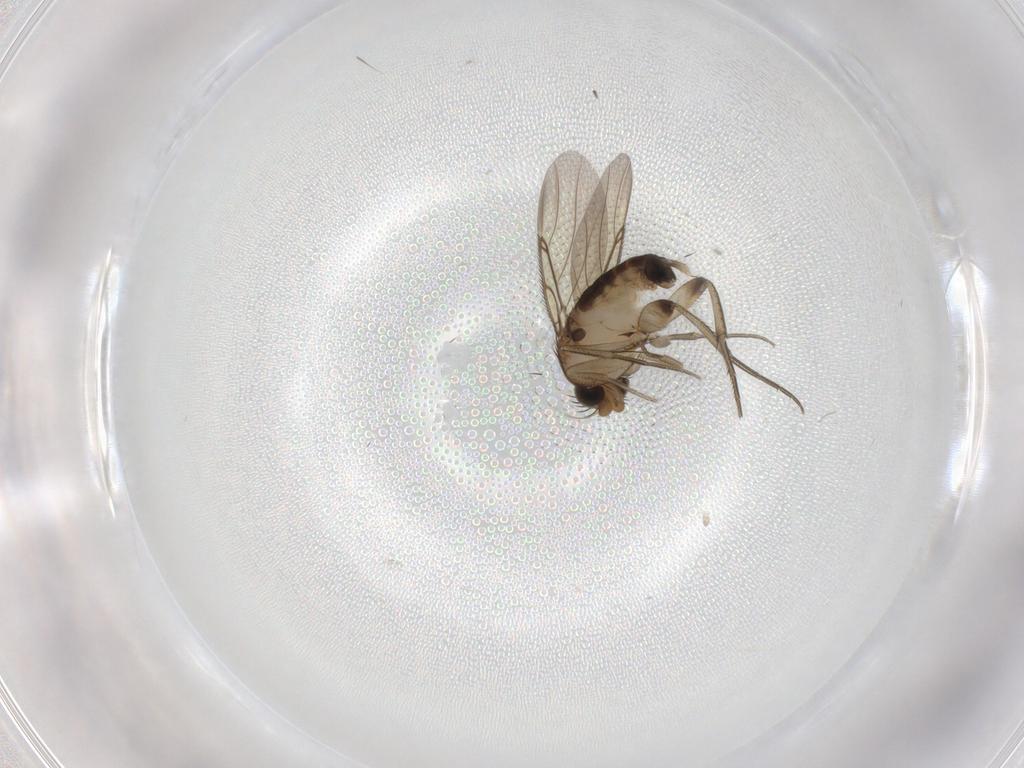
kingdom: Animalia
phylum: Arthropoda
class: Insecta
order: Diptera
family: Phoridae
